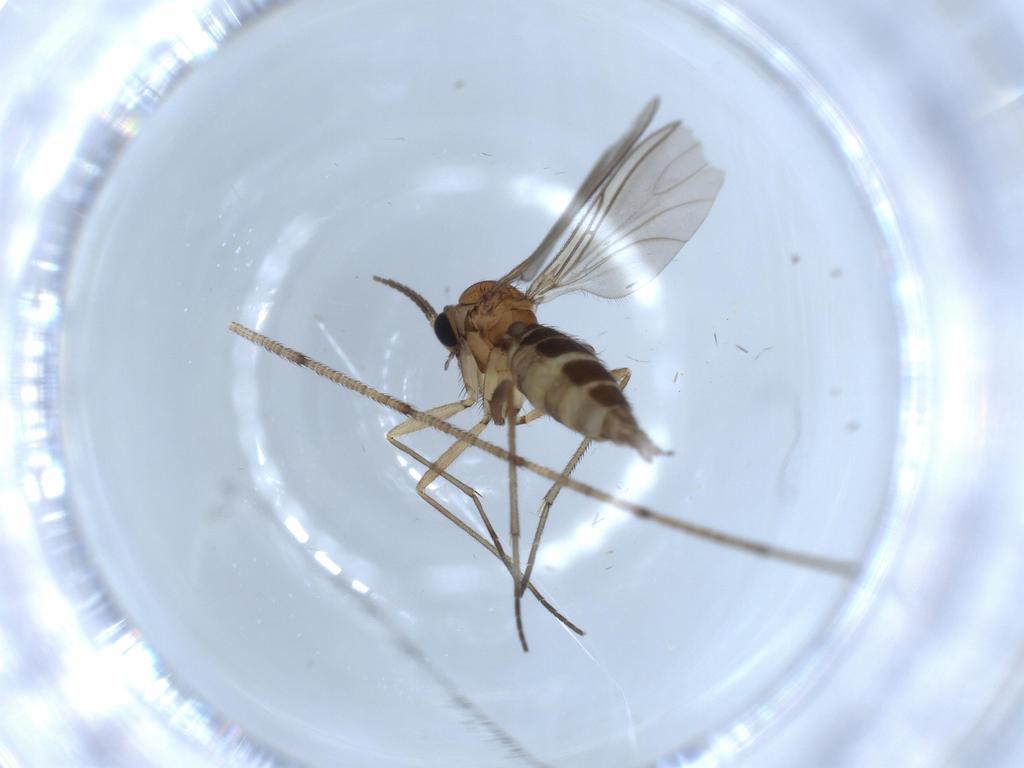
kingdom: Animalia
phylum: Arthropoda
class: Insecta
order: Diptera
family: Sciaridae
